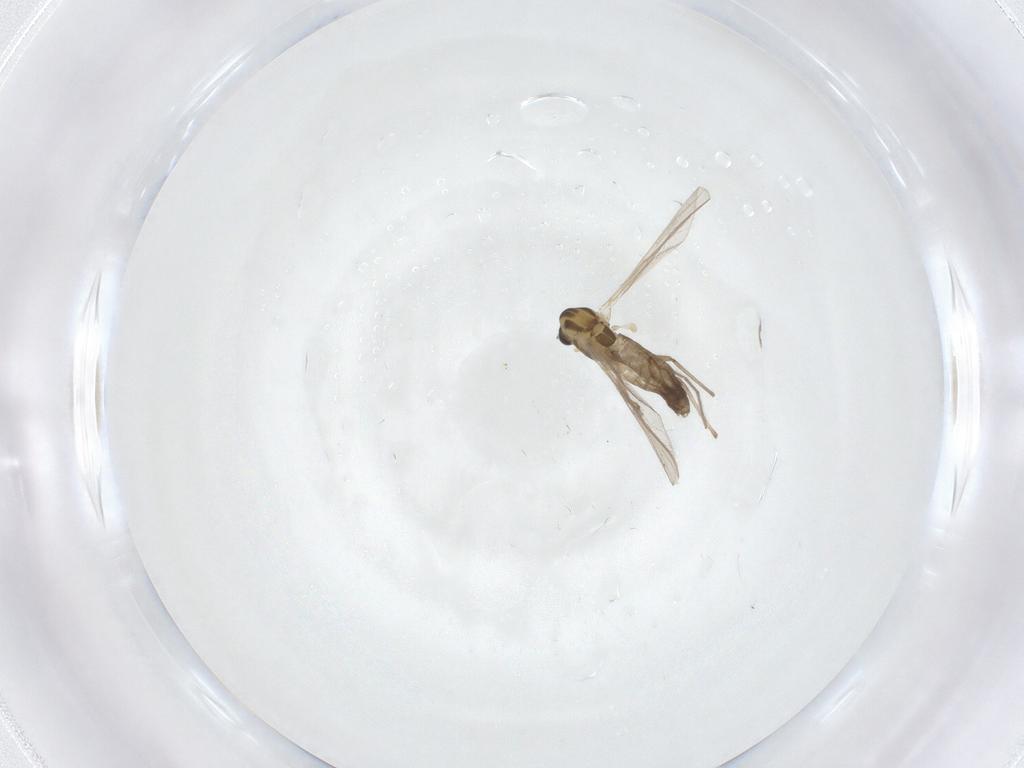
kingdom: Animalia
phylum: Arthropoda
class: Insecta
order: Diptera
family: Chironomidae
